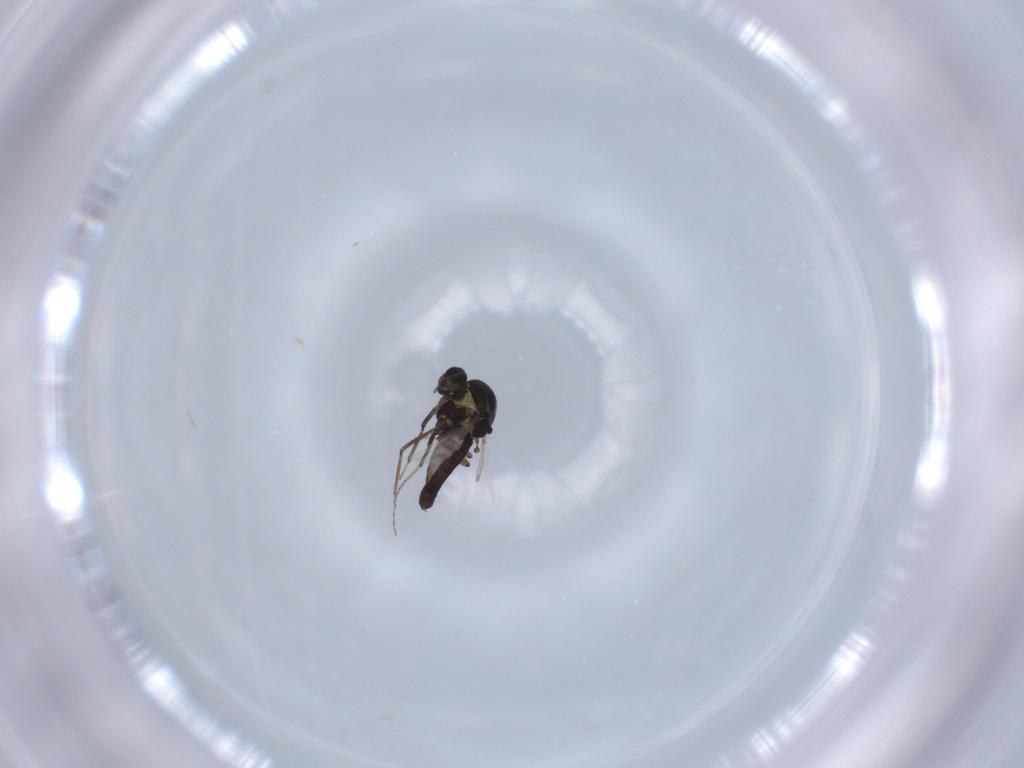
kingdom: Animalia
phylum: Arthropoda
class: Insecta
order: Diptera
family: Ceratopogonidae
